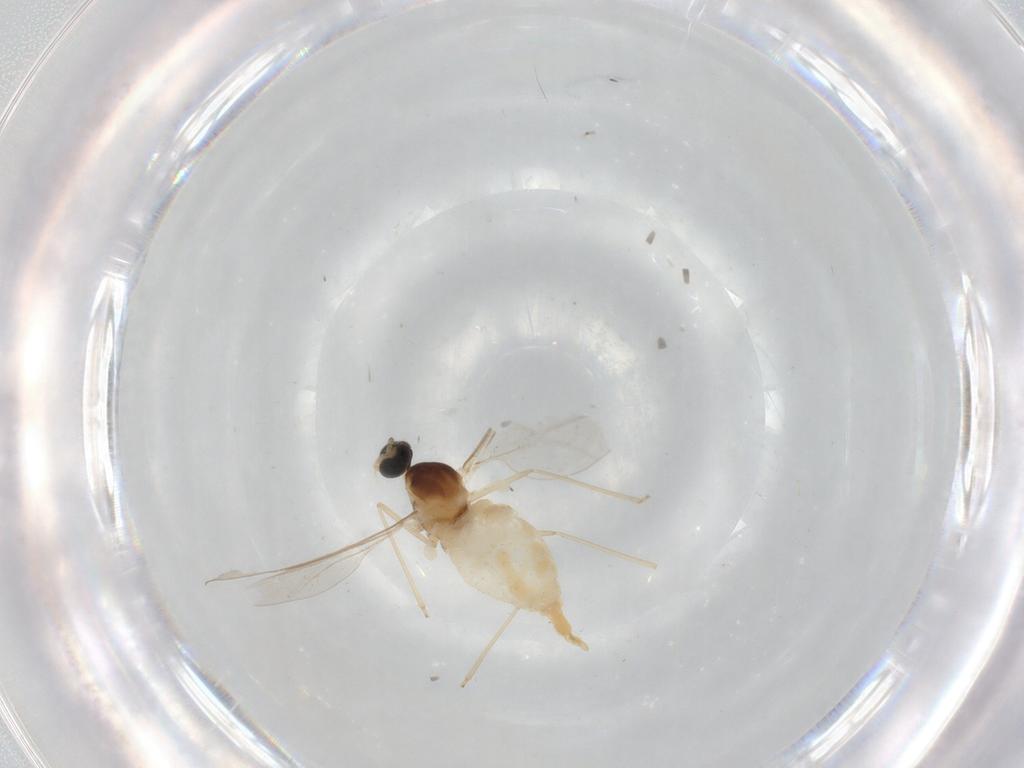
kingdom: Animalia
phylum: Arthropoda
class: Insecta
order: Diptera
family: Cecidomyiidae
